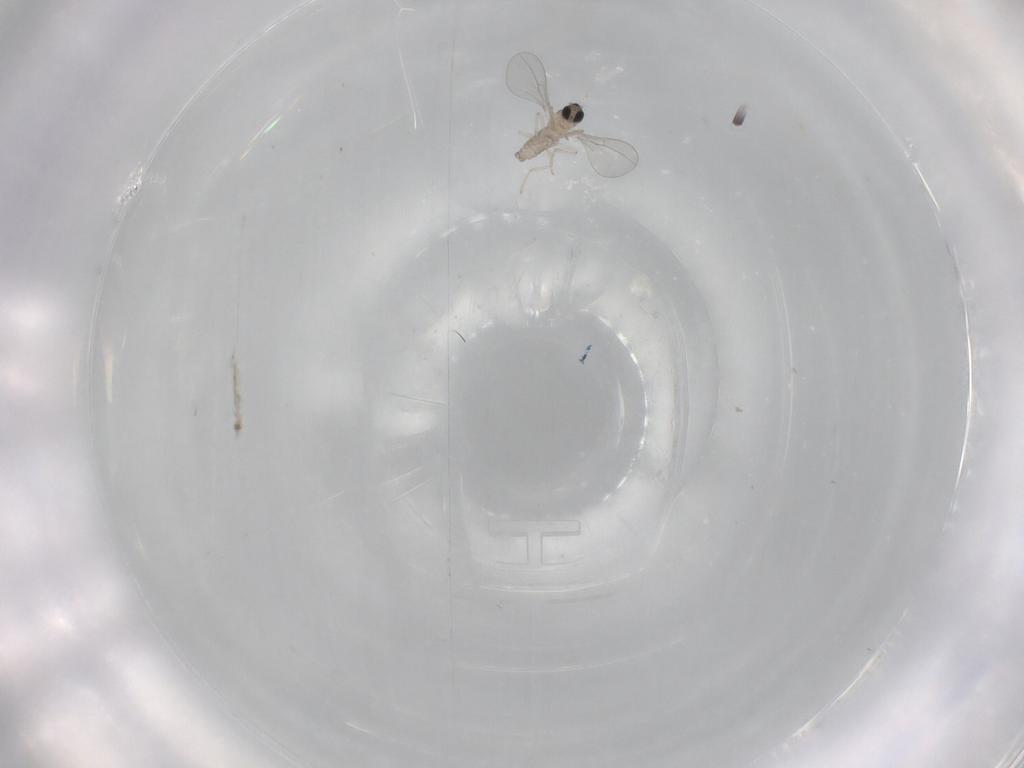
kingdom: Animalia
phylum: Arthropoda
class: Insecta
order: Diptera
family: Cecidomyiidae
